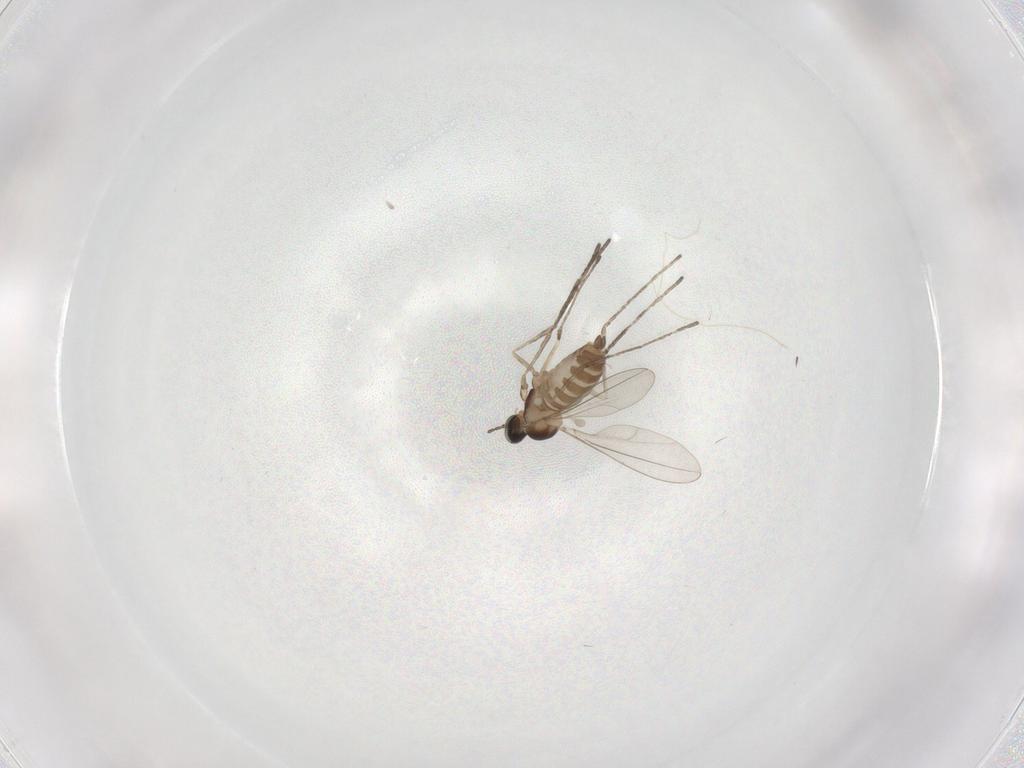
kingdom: Animalia
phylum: Arthropoda
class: Insecta
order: Diptera
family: Cecidomyiidae
